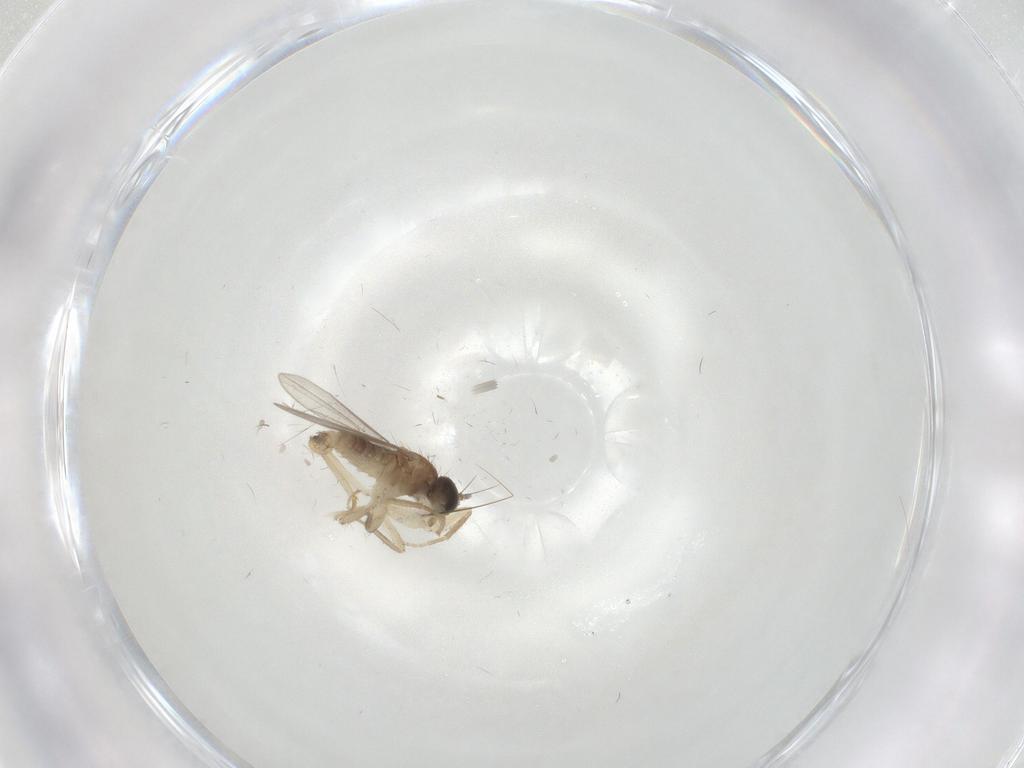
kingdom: Animalia
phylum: Arthropoda
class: Insecta
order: Diptera
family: Hybotidae
